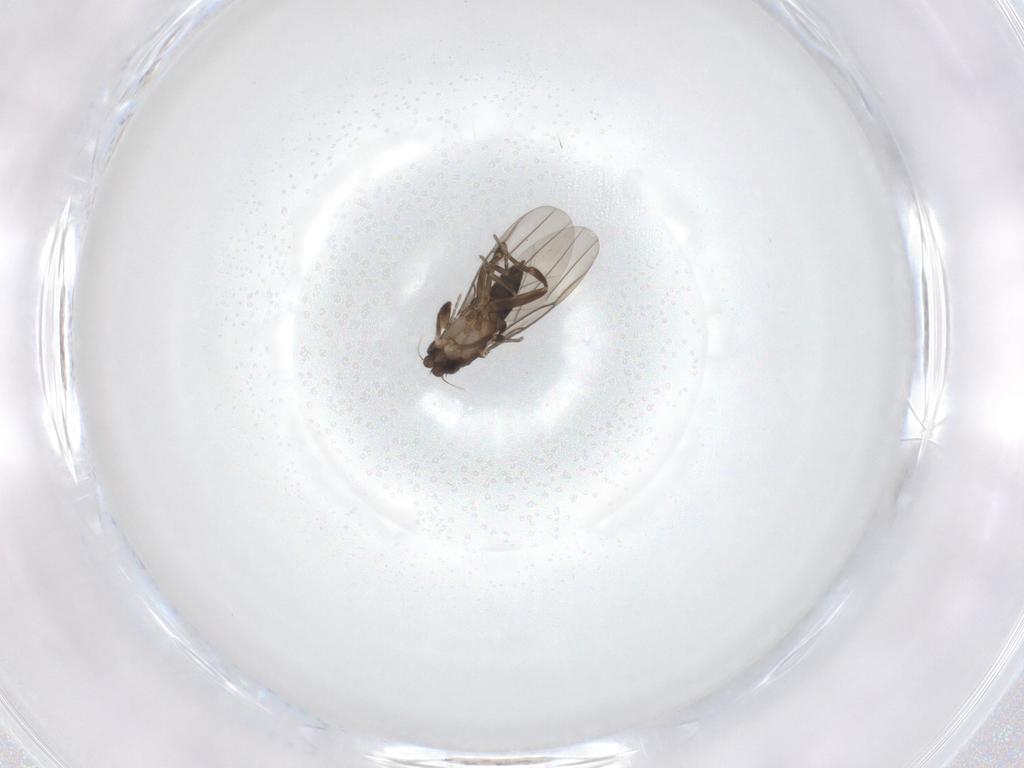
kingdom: Animalia
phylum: Arthropoda
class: Insecta
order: Diptera
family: Phoridae
